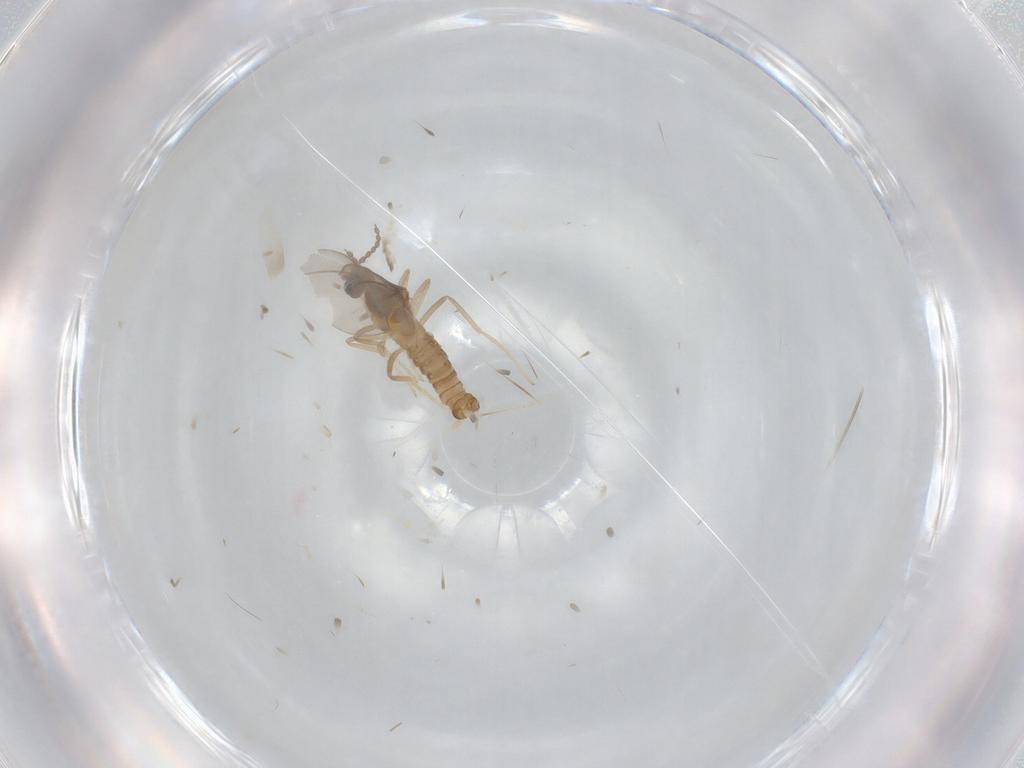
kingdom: Animalia
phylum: Arthropoda
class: Insecta
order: Diptera
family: Cecidomyiidae
